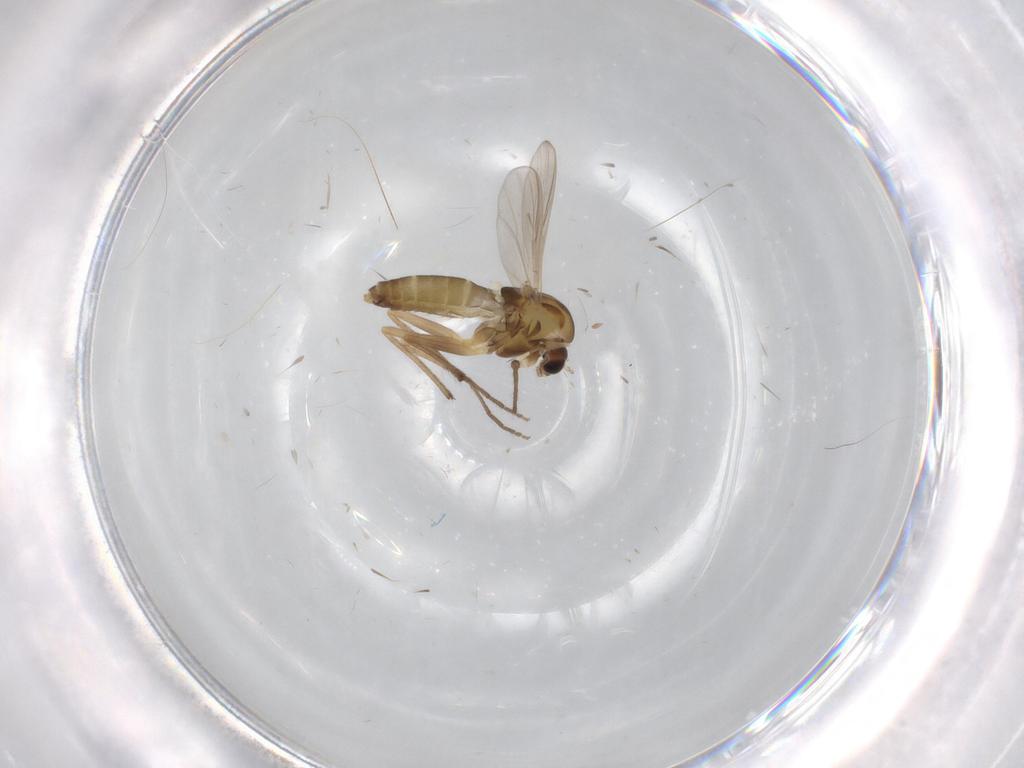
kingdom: Animalia
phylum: Arthropoda
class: Insecta
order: Diptera
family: Chironomidae
